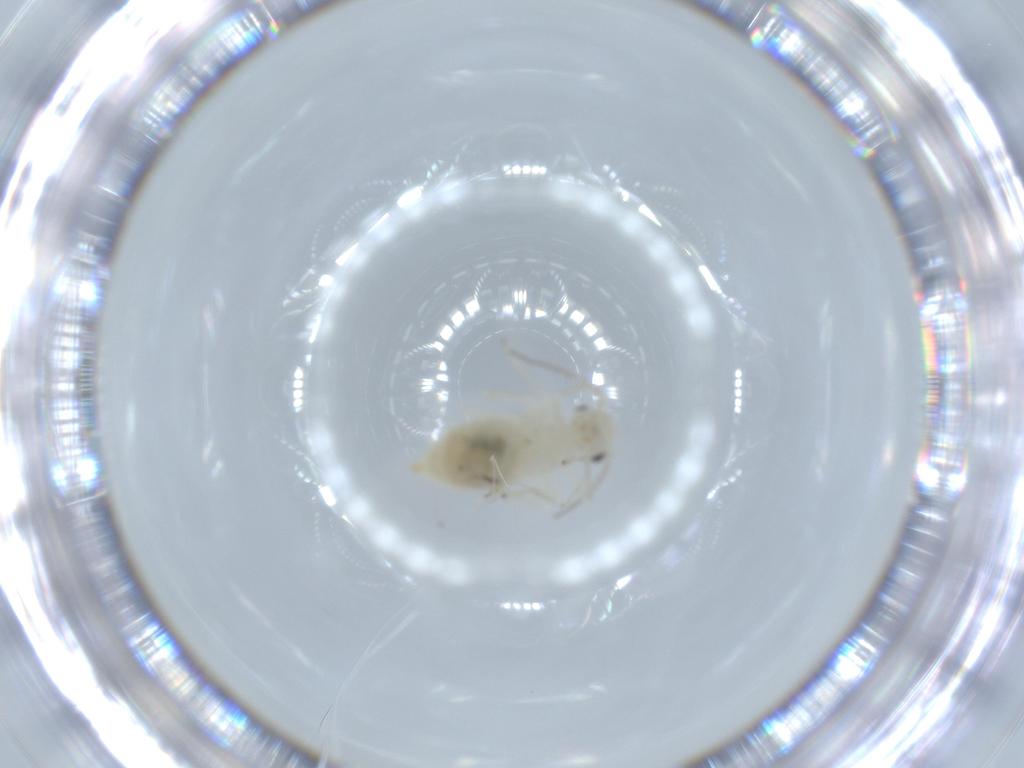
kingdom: Animalia
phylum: Arthropoda
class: Insecta
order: Psocodea
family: Caeciliusidae
